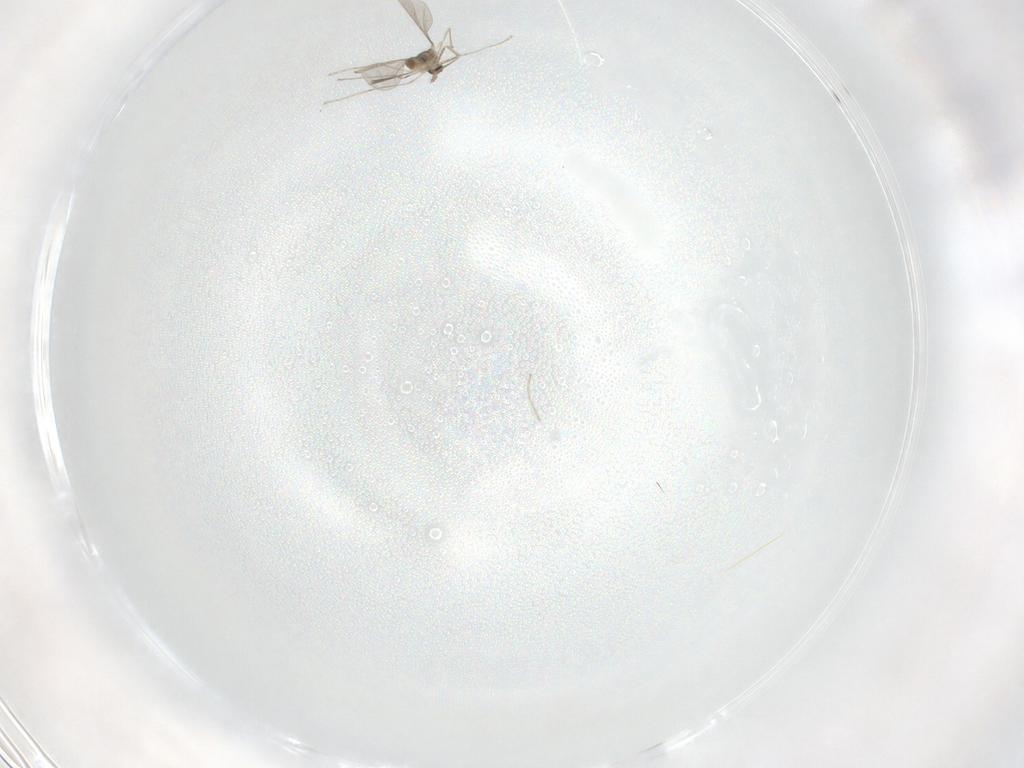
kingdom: Animalia
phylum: Arthropoda
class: Insecta
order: Diptera
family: Cecidomyiidae
